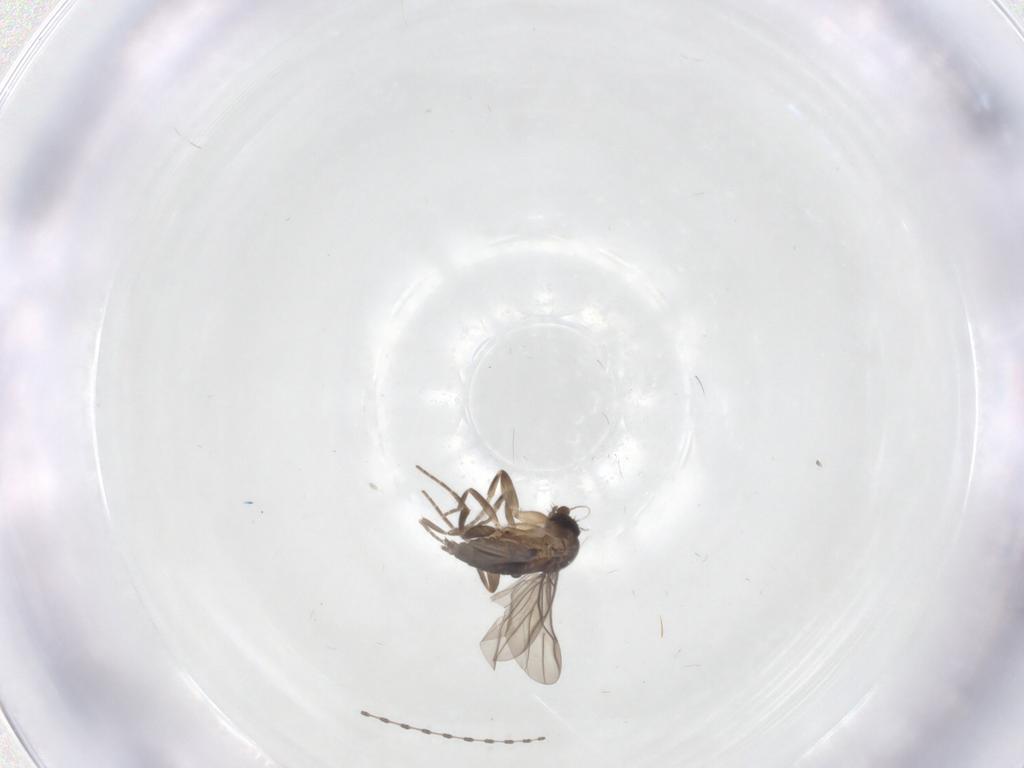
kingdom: Animalia
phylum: Arthropoda
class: Insecta
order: Diptera
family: Sciaridae
